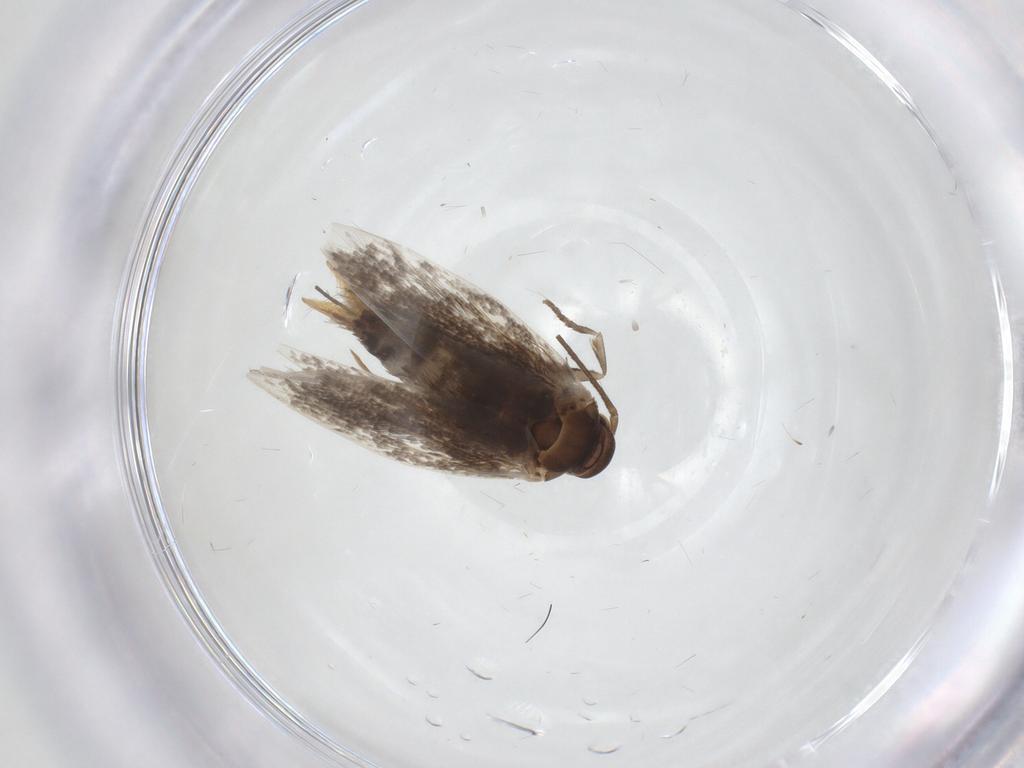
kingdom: Animalia
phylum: Arthropoda
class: Insecta
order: Lepidoptera
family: Elachistidae
